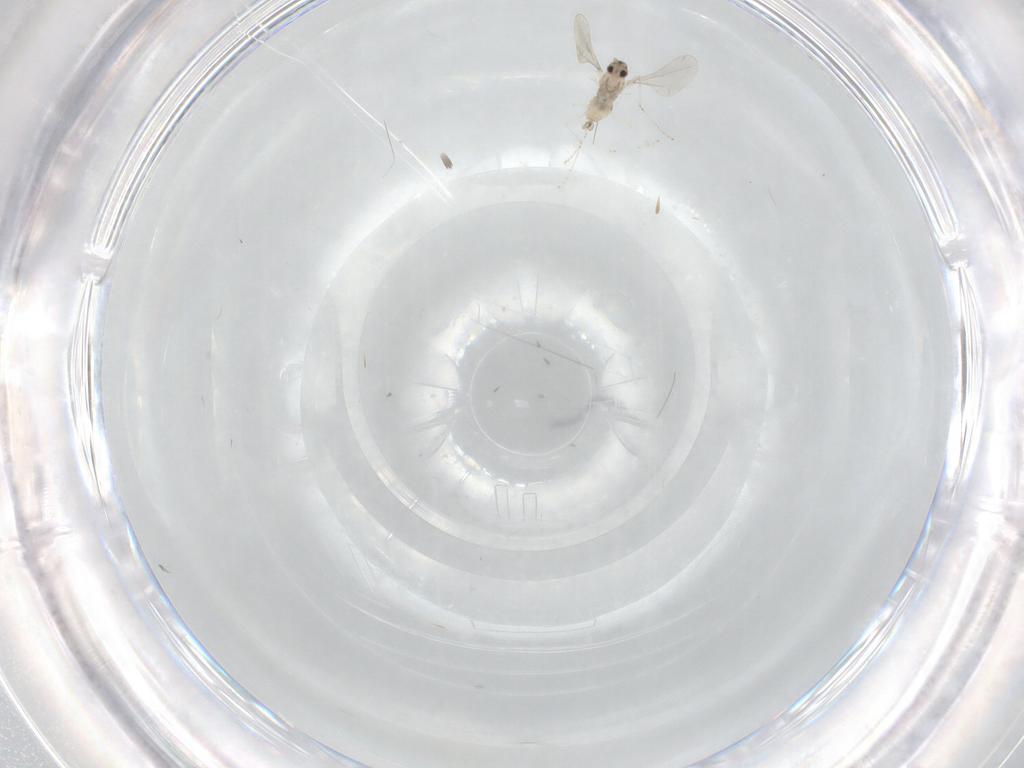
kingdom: Animalia
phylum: Arthropoda
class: Insecta
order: Diptera
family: Cecidomyiidae
